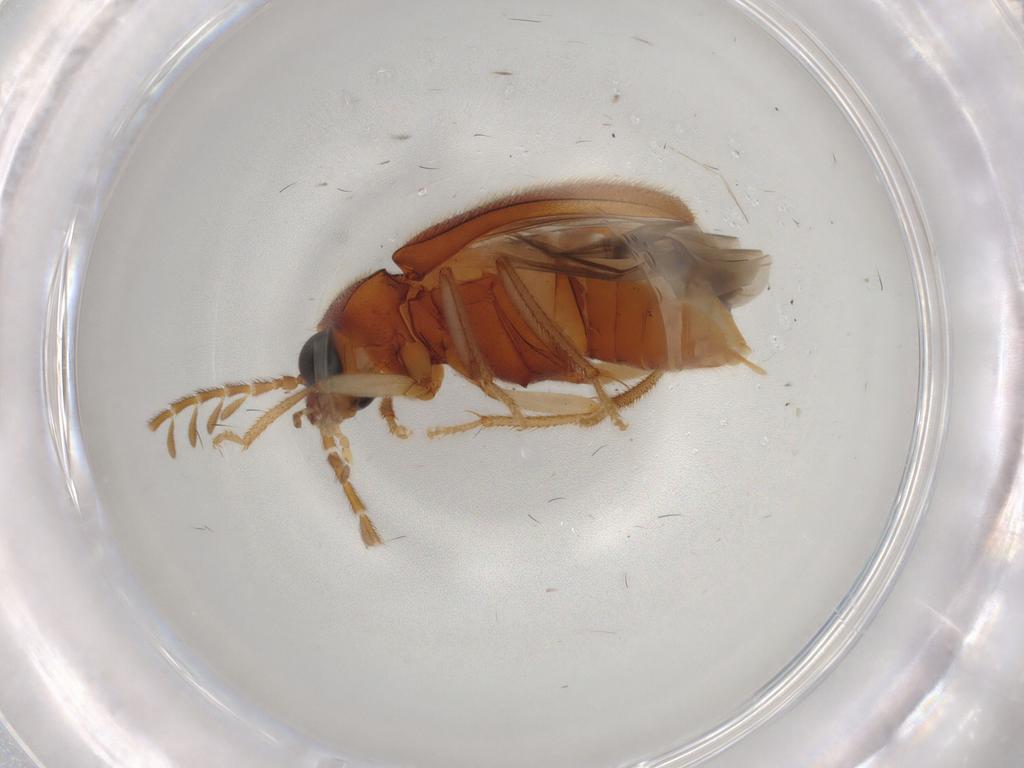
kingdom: Animalia
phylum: Arthropoda
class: Insecta
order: Coleoptera
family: Ptilodactylidae
